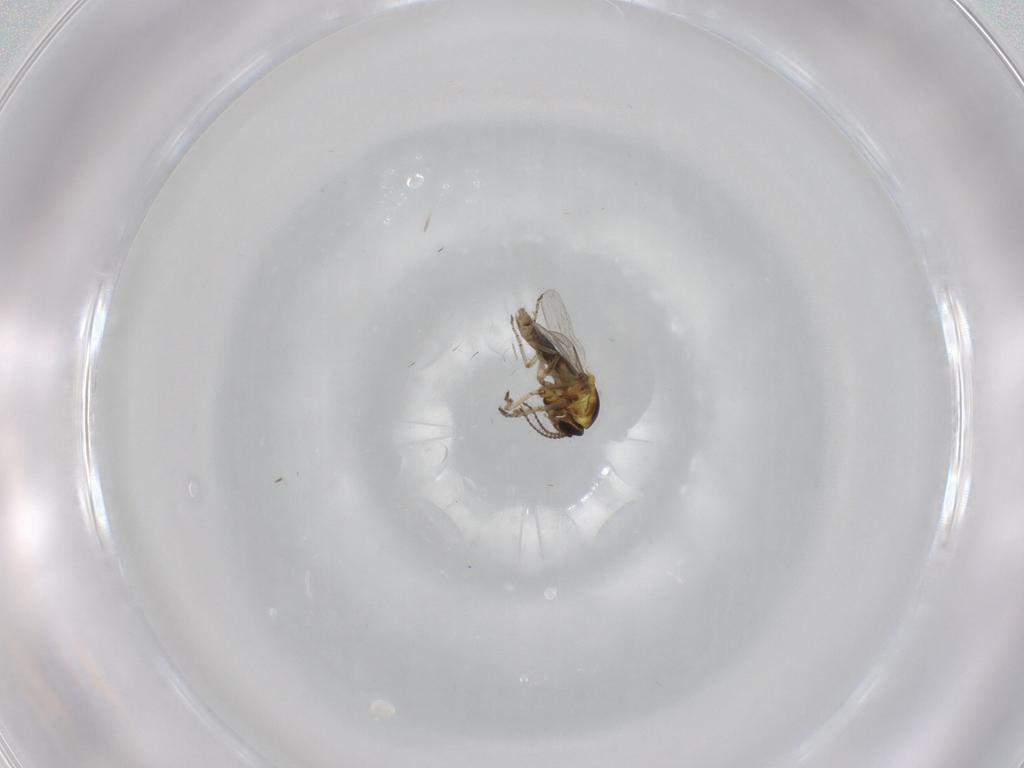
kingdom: Animalia
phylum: Arthropoda
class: Insecta
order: Diptera
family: Ceratopogonidae
